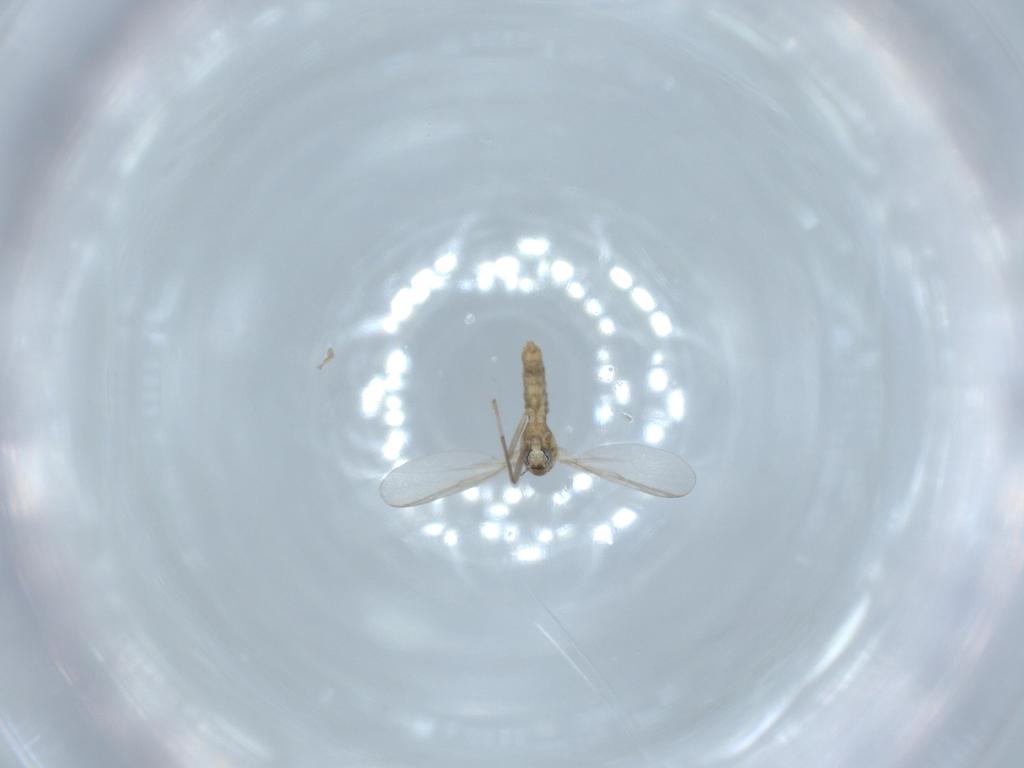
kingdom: Animalia
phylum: Arthropoda
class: Insecta
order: Diptera
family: Chironomidae
